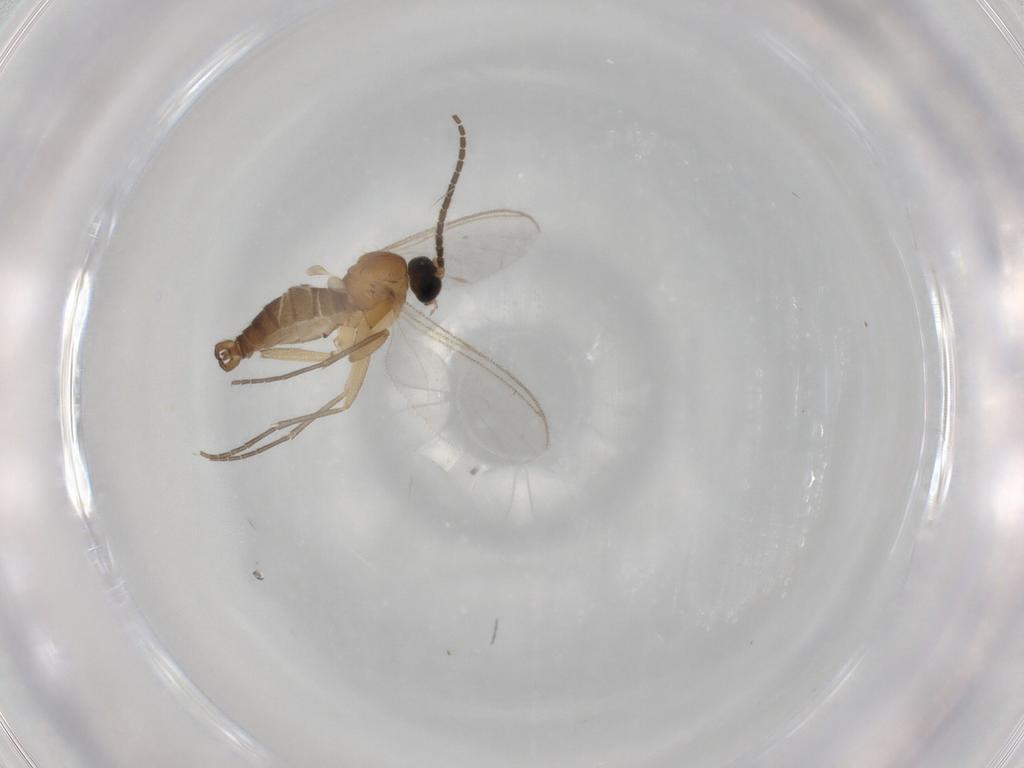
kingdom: Animalia
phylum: Arthropoda
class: Insecta
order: Diptera
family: Sciaridae
